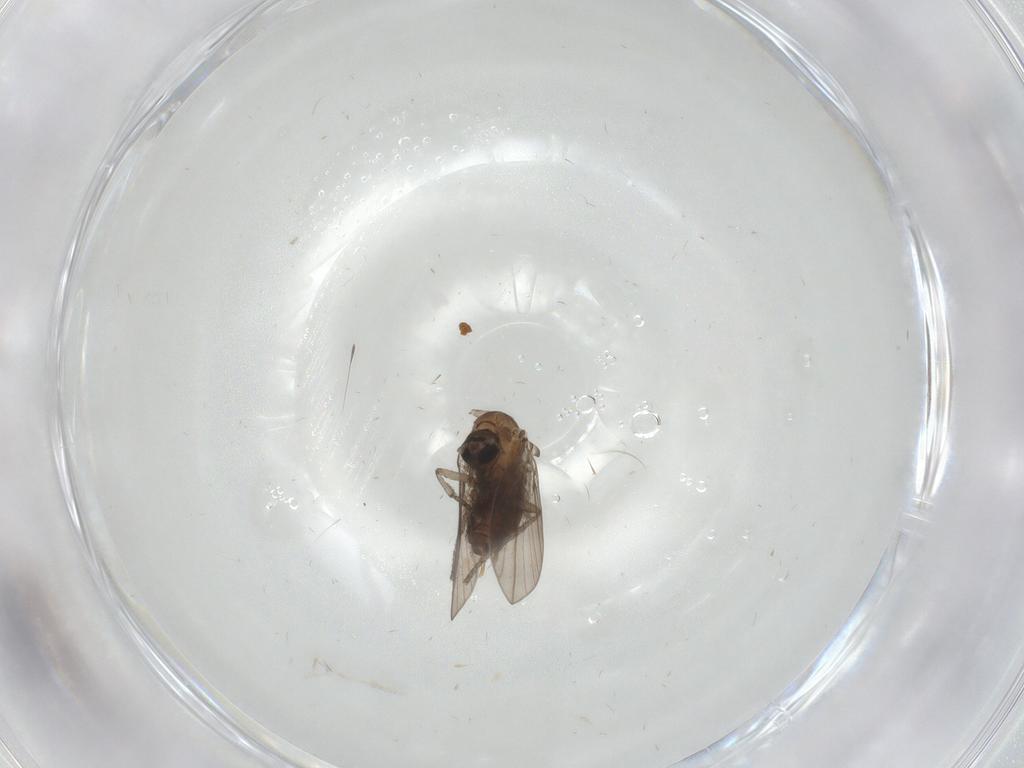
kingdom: Animalia
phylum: Arthropoda
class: Insecta
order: Diptera
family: Psychodidae
